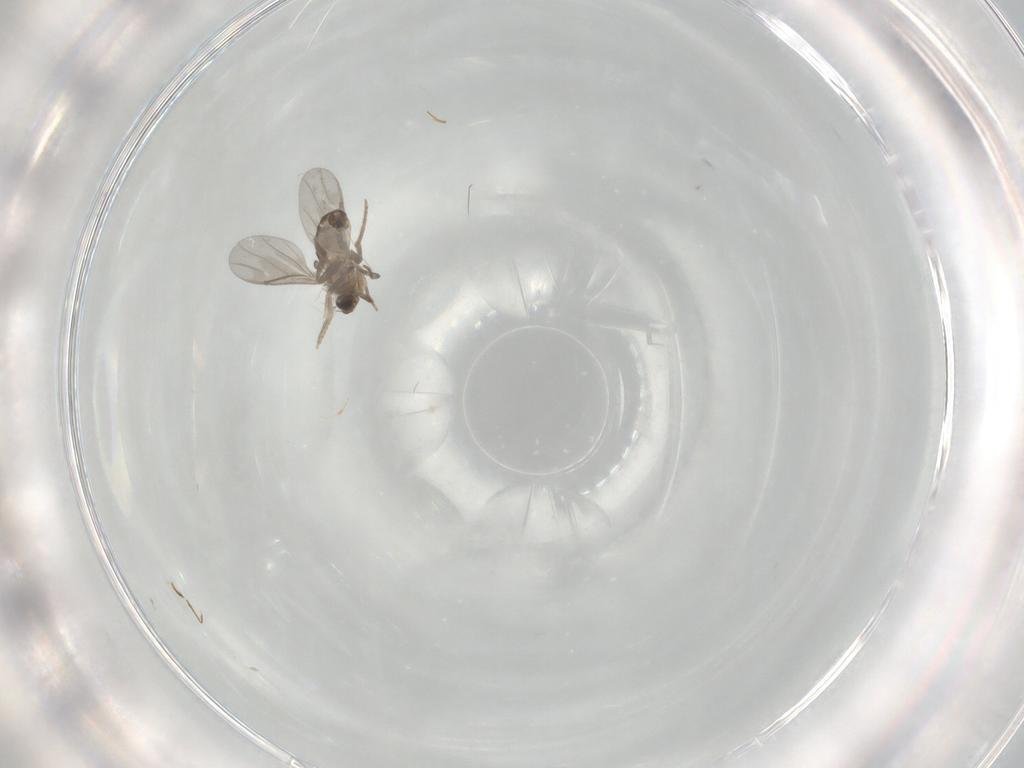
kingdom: Animalia
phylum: Arthropoda
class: Insecta
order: Diptera
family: Chironomidae
